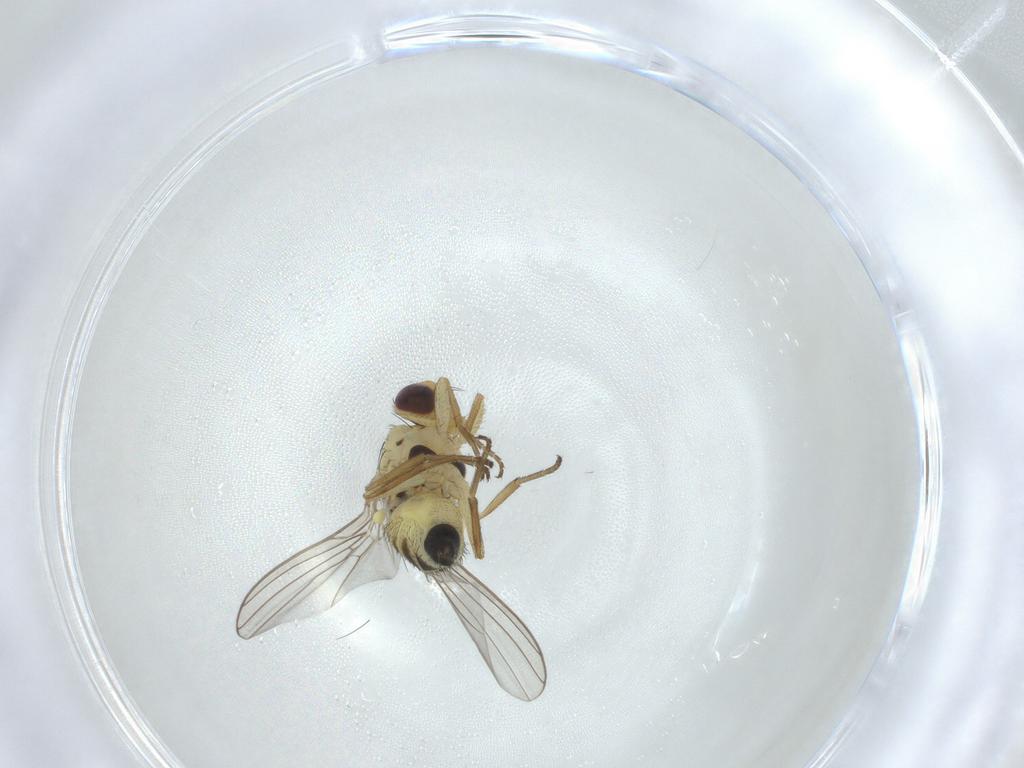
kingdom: Animalia
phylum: Arthropoda
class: Insecta
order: Diptera
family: Agromyzidae
